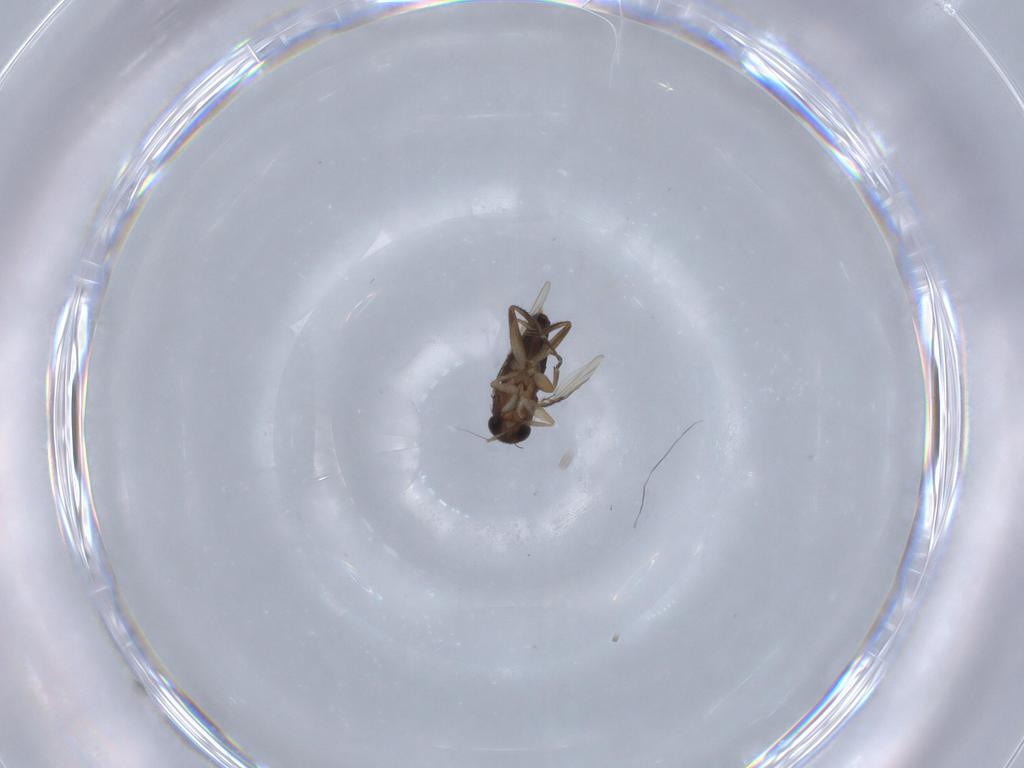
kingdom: Animalia
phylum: Arthropoda
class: Insecta
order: Diptera
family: Phoridae
